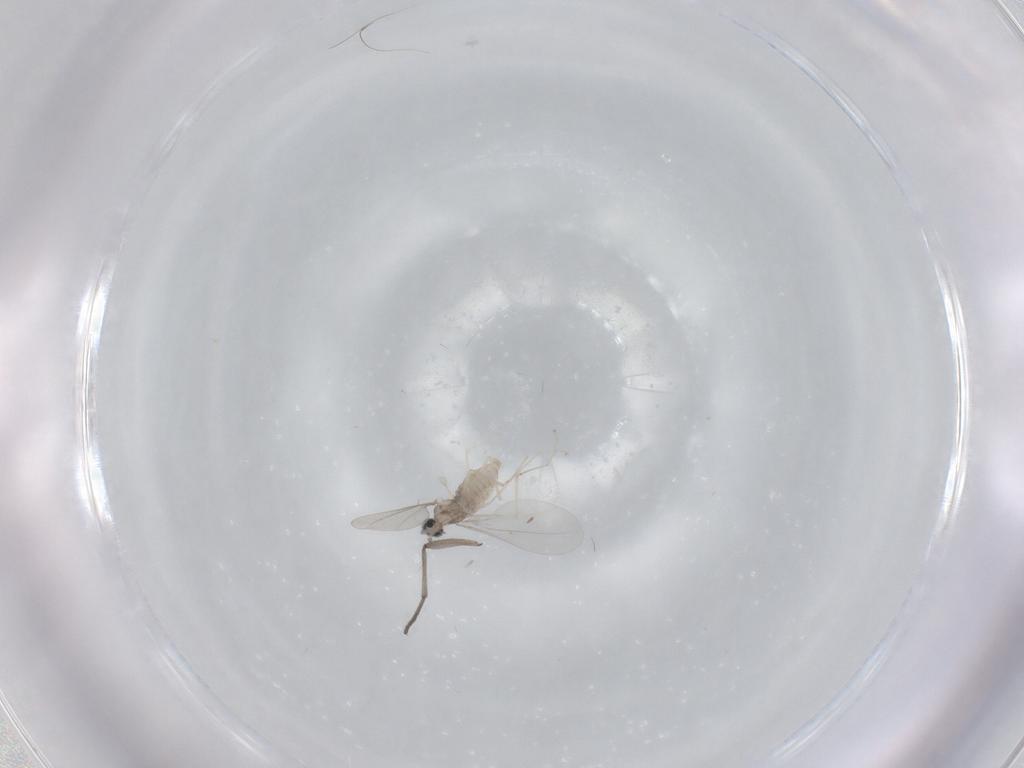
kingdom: Animalia
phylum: Arthropoda
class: Insecta
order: Diptera
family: Sciaridae
